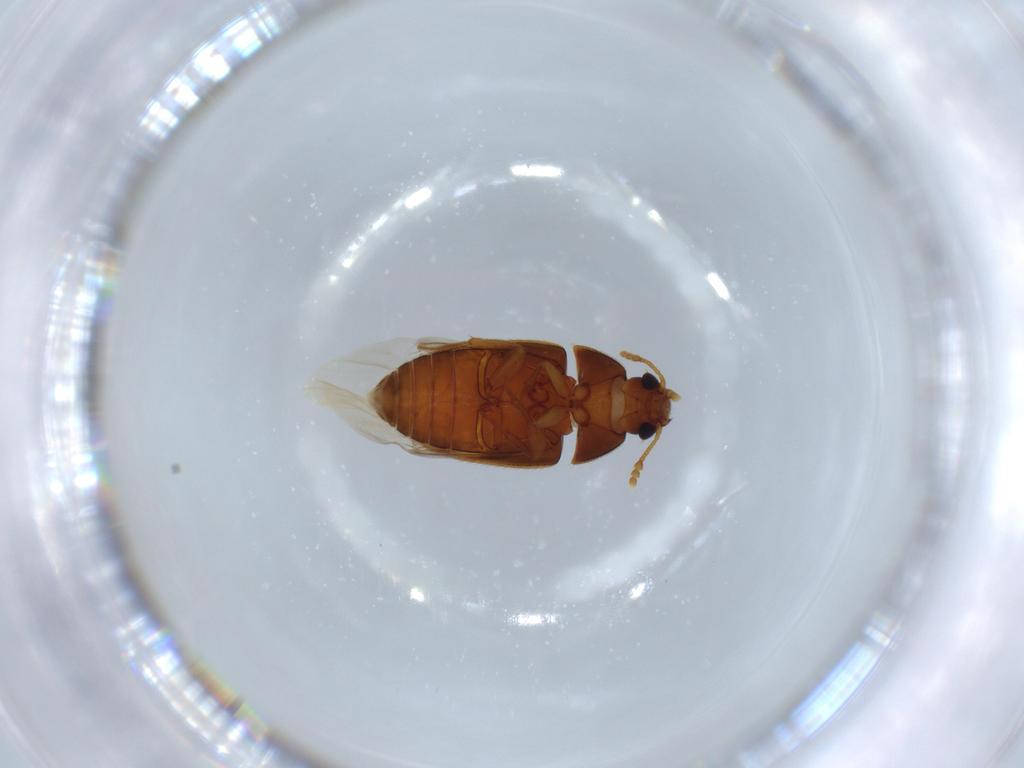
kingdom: Animalia
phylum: Arthropoda
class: Insecta
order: Coleoptera
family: Mycetophagidae
